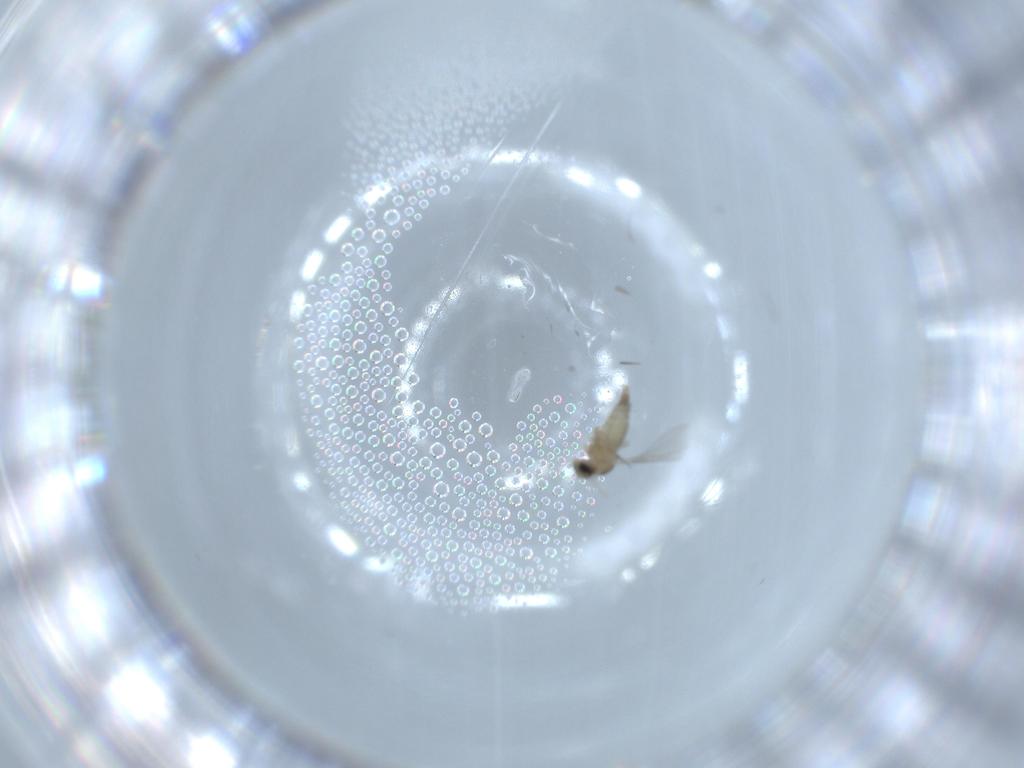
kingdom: Animalia
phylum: Arthropoda
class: Insecta
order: Diptera
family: Cecidomyiidae
